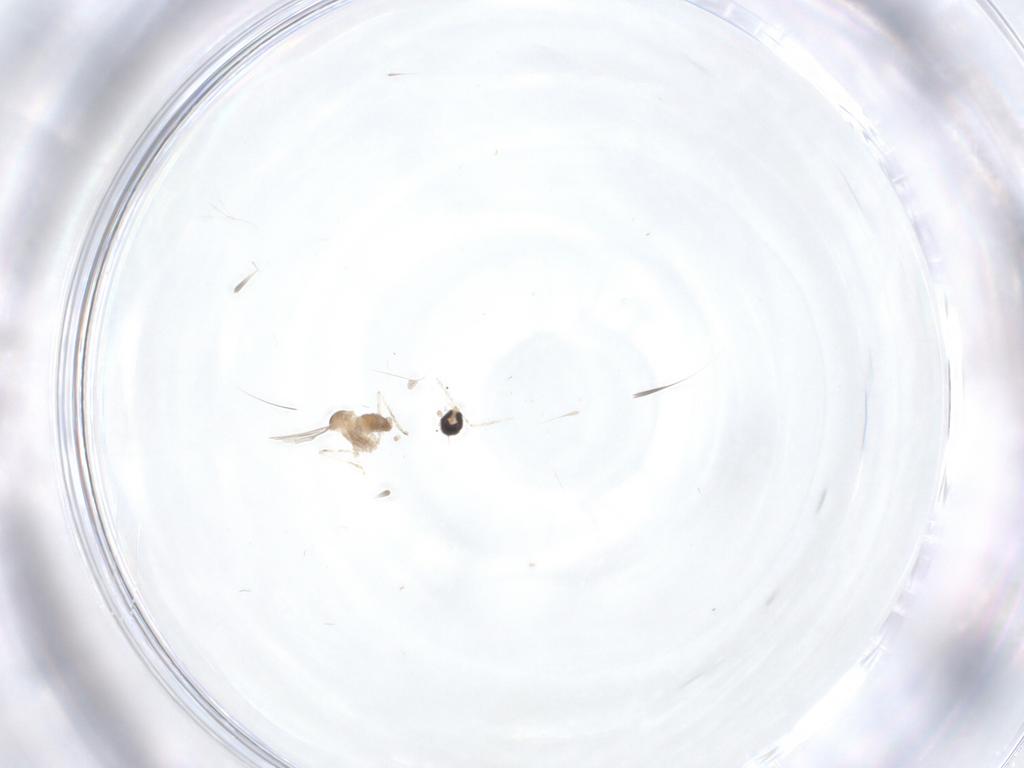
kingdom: Animalia
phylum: Arthropoda
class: Insecta
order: Diptera
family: Cecidomyiidae
